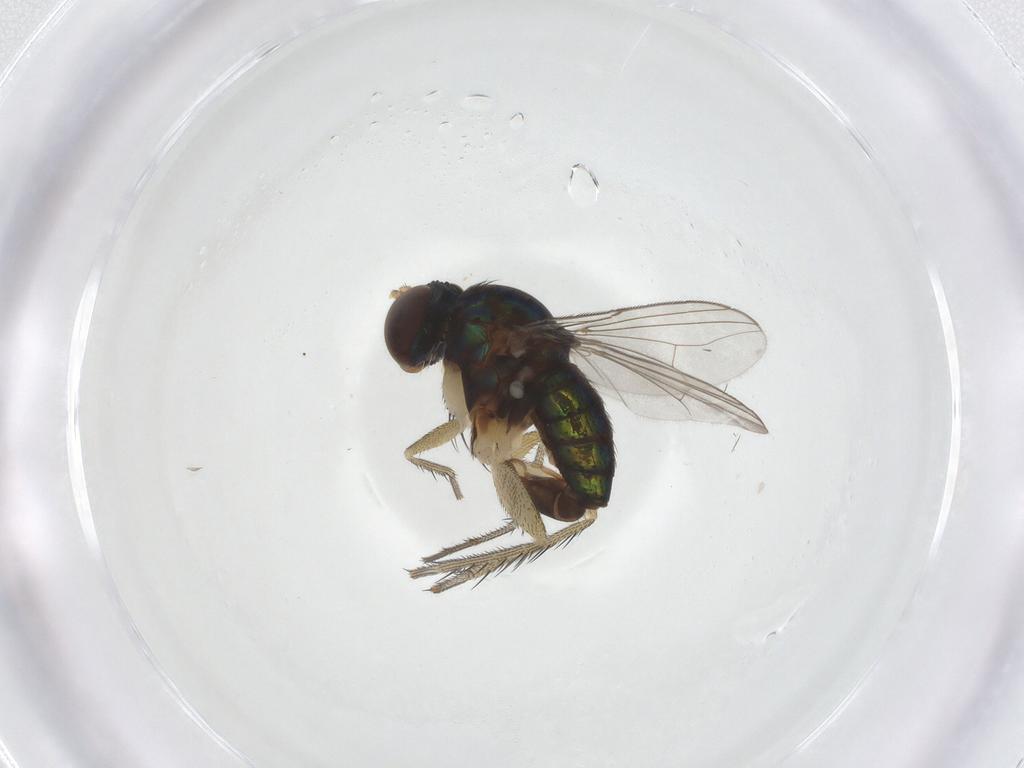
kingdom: Animalia
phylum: Arthropoda
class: Insecta
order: Diptera
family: Dolichopodidae
